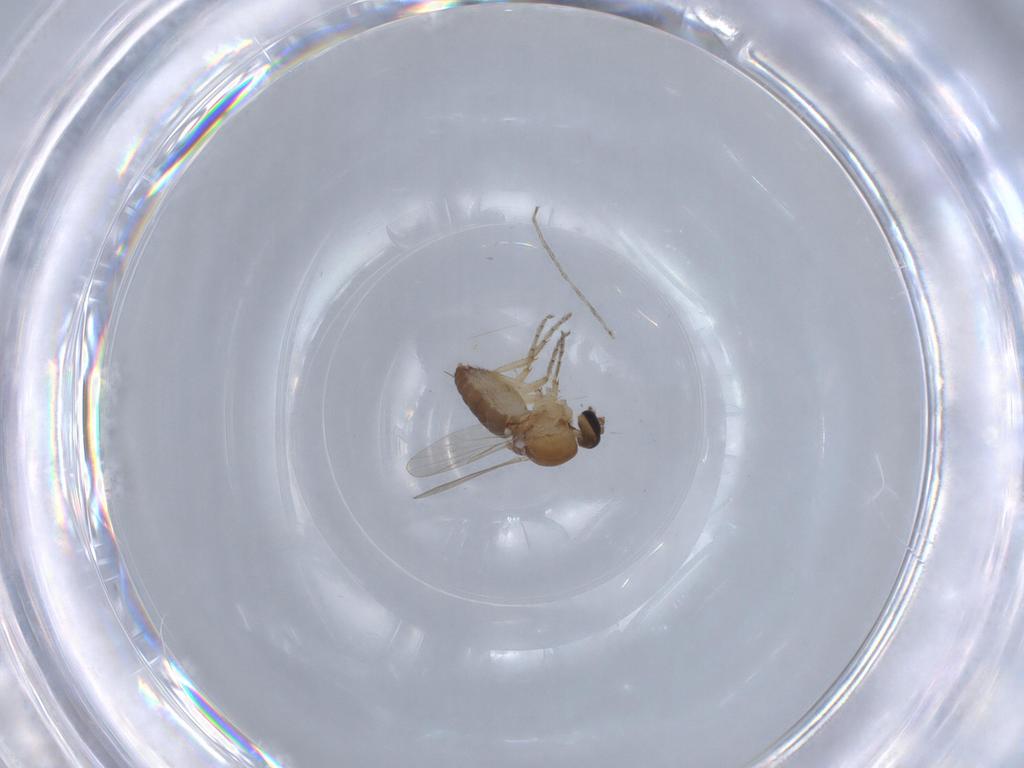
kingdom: Animalia
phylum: Arthropoda
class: Insecta
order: Diptera
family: Ceratopogonidae
